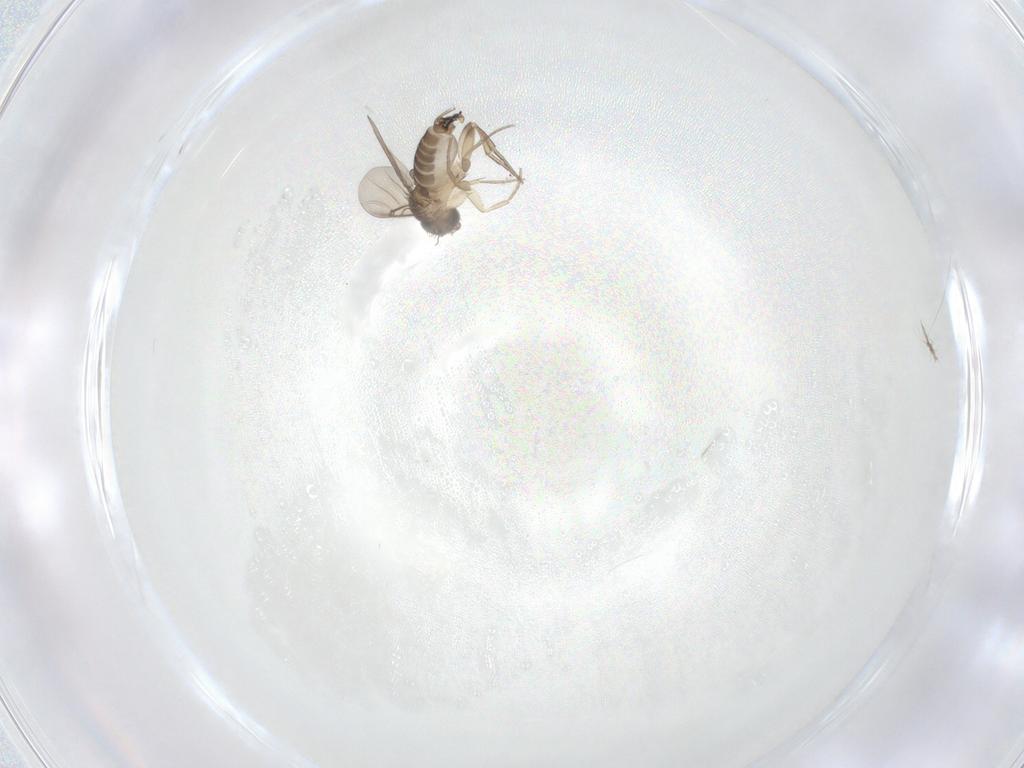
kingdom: Animalia
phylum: Arthropoda
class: Insecta
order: Diptera
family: Phoridae
